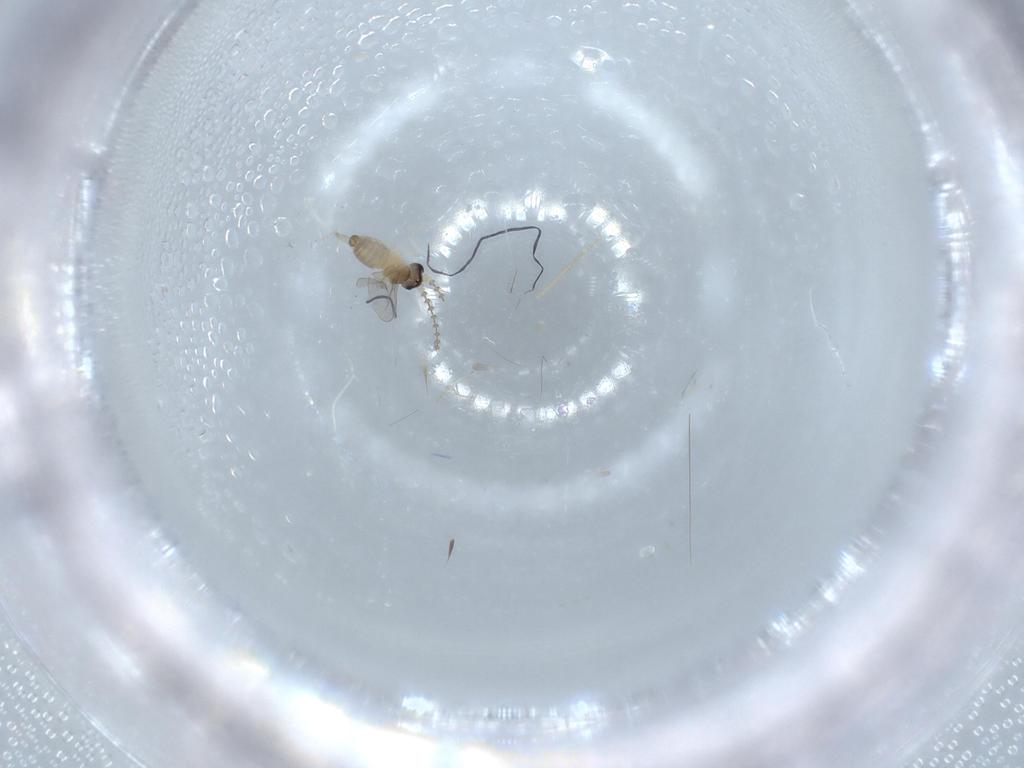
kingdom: Animalia
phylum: Arthropoda
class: Insecta
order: Diptera
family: Cecidomyiidae
